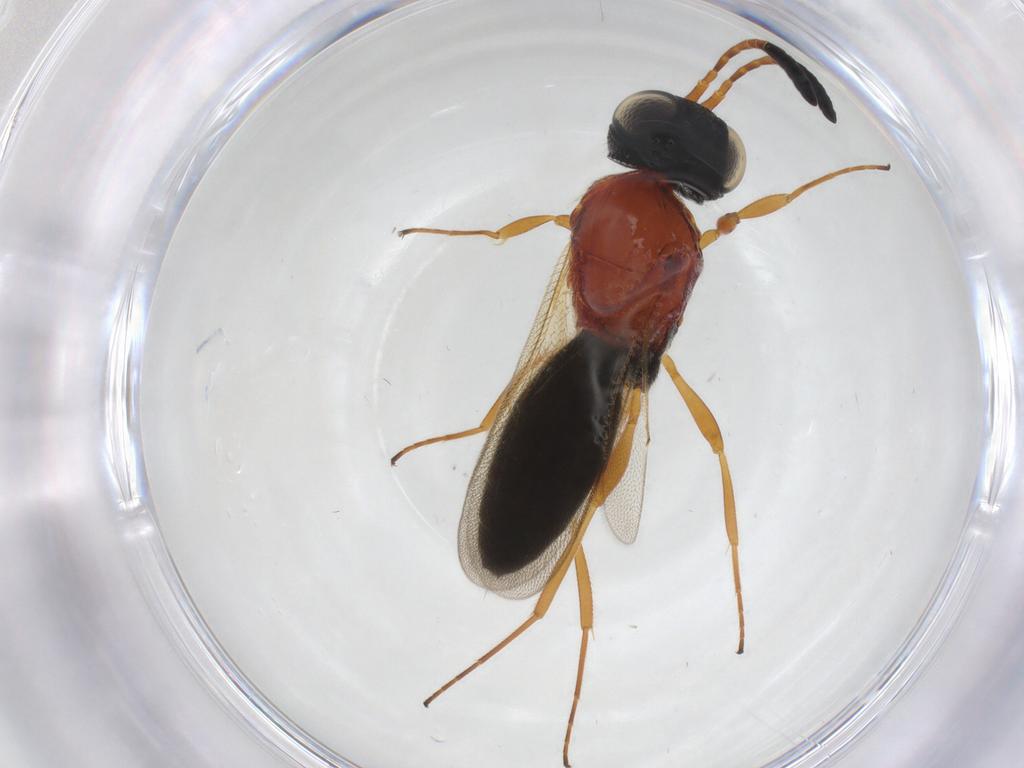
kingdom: Animalia
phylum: Arthropoda
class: Insecta
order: Hymenoptera
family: Scelionidae
